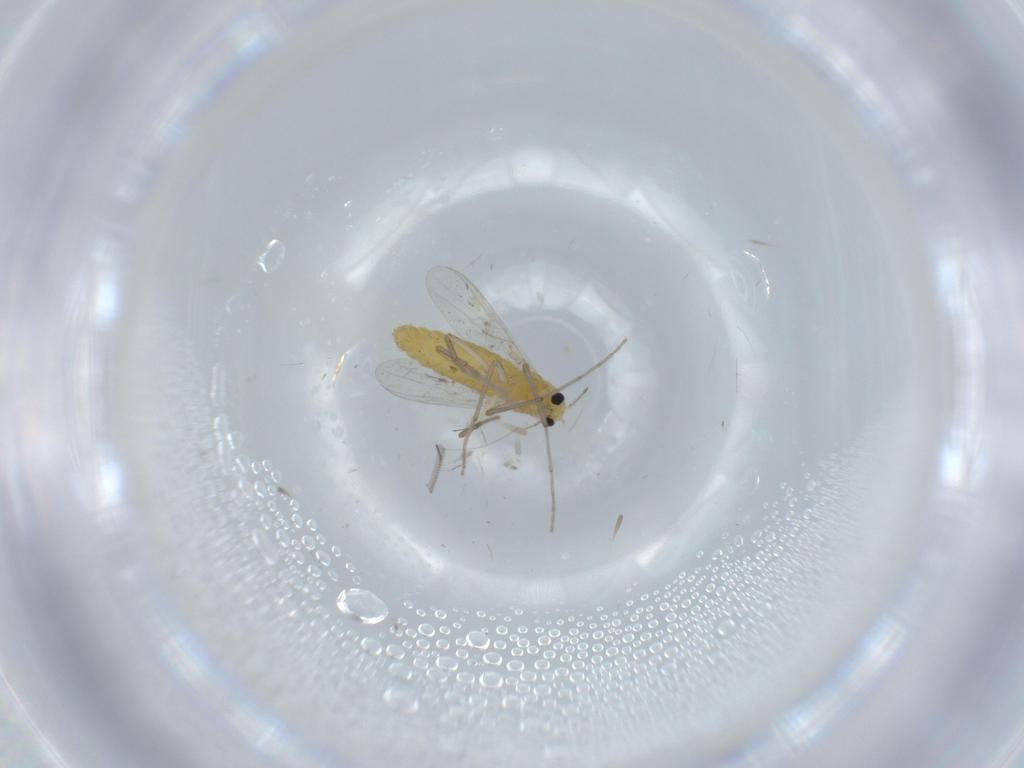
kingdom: Animalia
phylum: Arthropoda
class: Insecta
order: Diptera
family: Chironomidae
